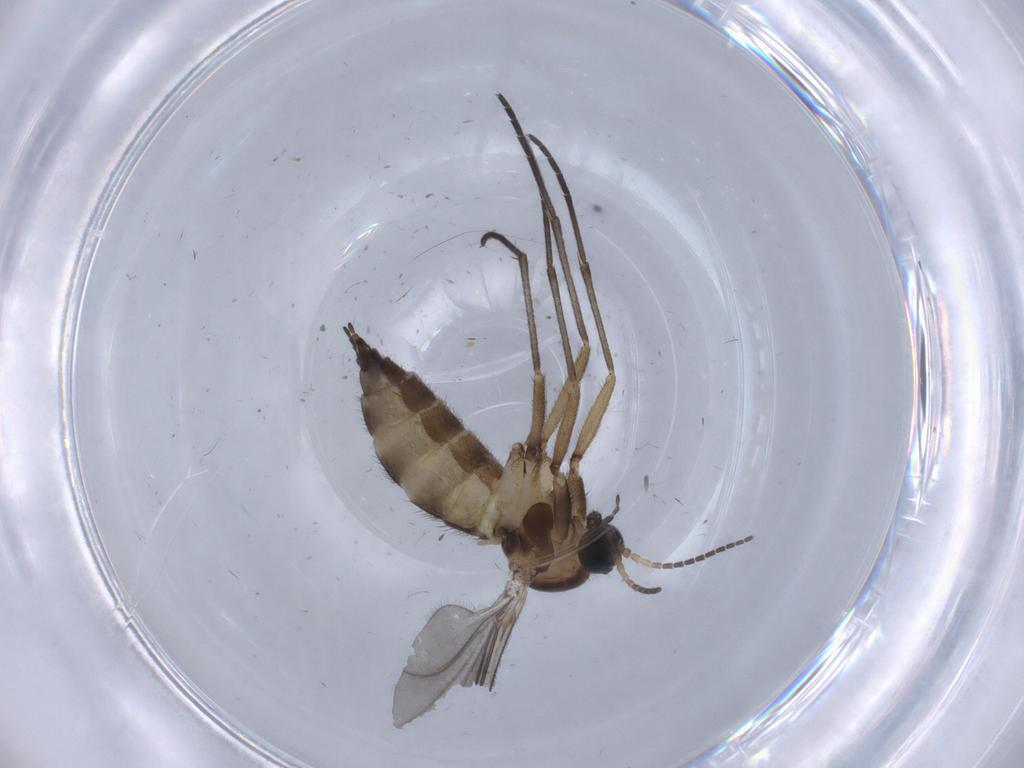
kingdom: Animalia
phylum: Arthropoda
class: Insecta
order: Diptera
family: Sciaridae
